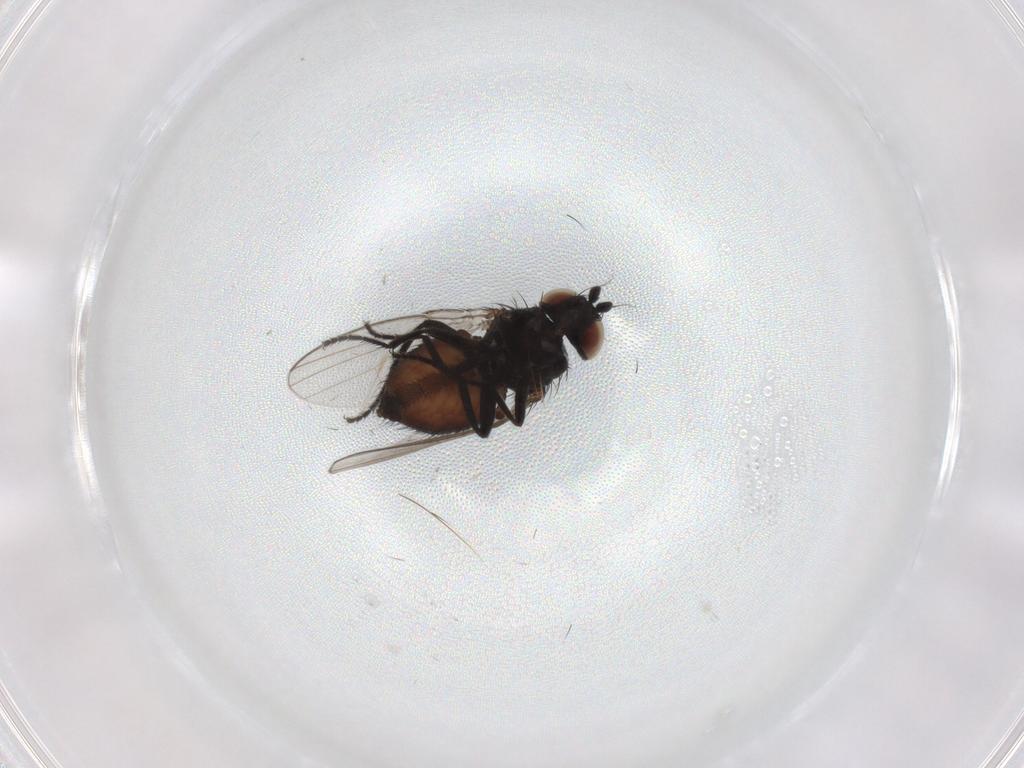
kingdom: Animalia
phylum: Arthropoda
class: Insecta
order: Diptera
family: Milichiidae
